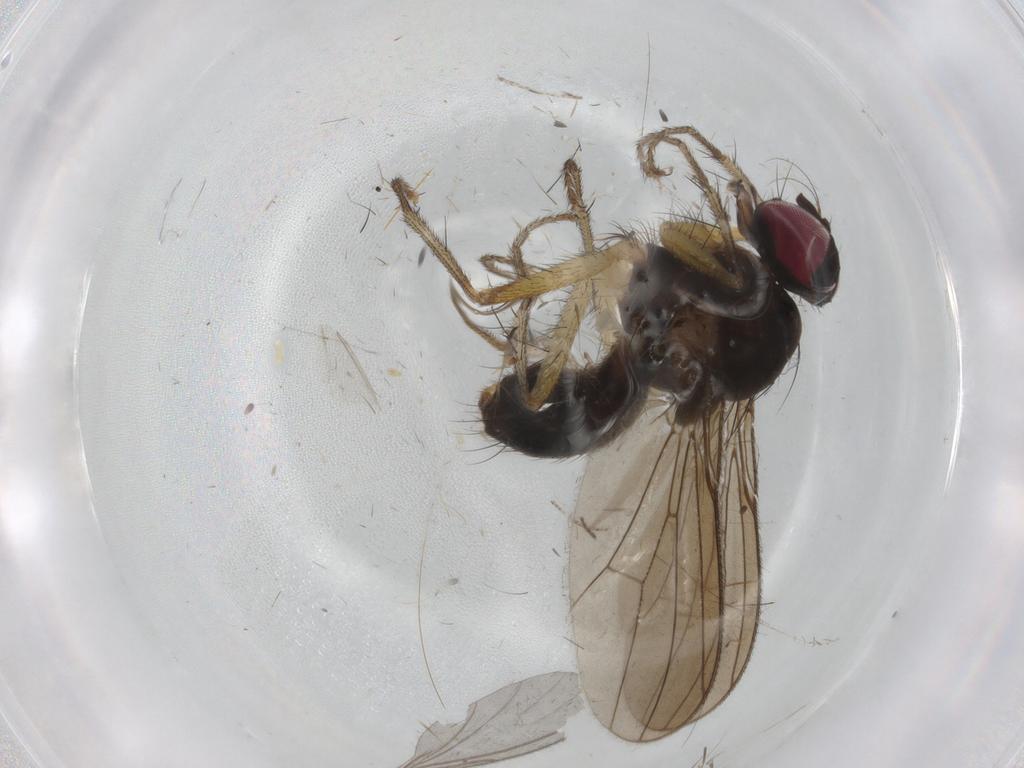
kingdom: Animalia
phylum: Arthropoda
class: Insecta
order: Diptera
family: Anthomyiidae
